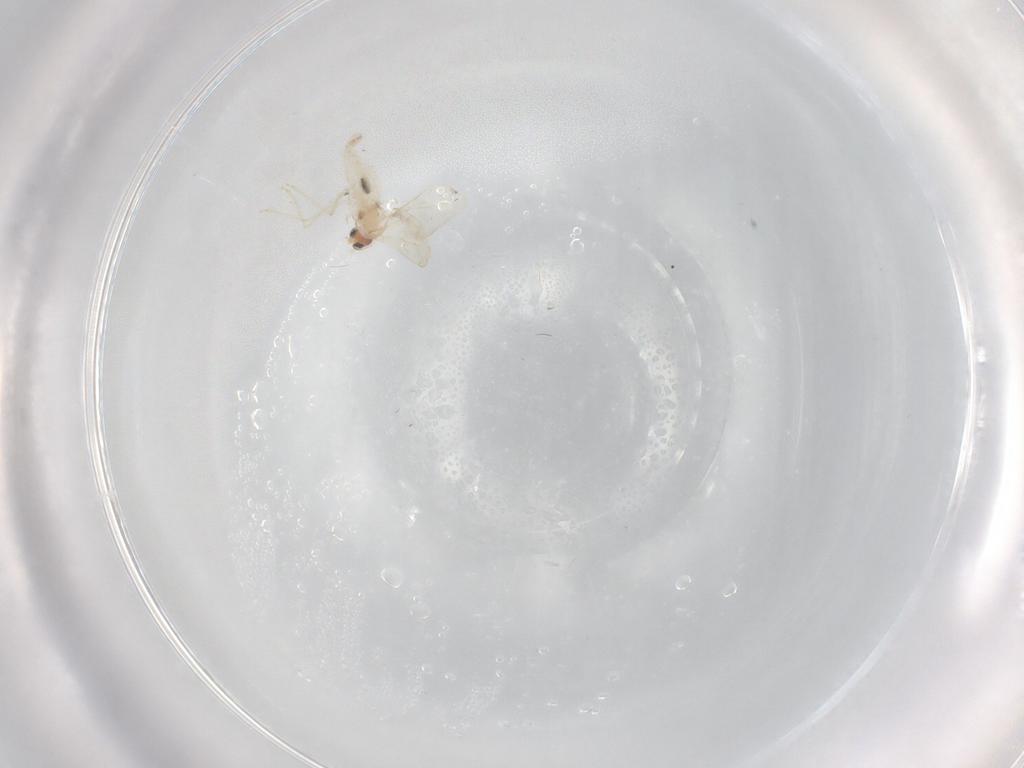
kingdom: Animalia
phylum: Arthropoda
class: Insecta
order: Diptera
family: Cecidomyiidae
